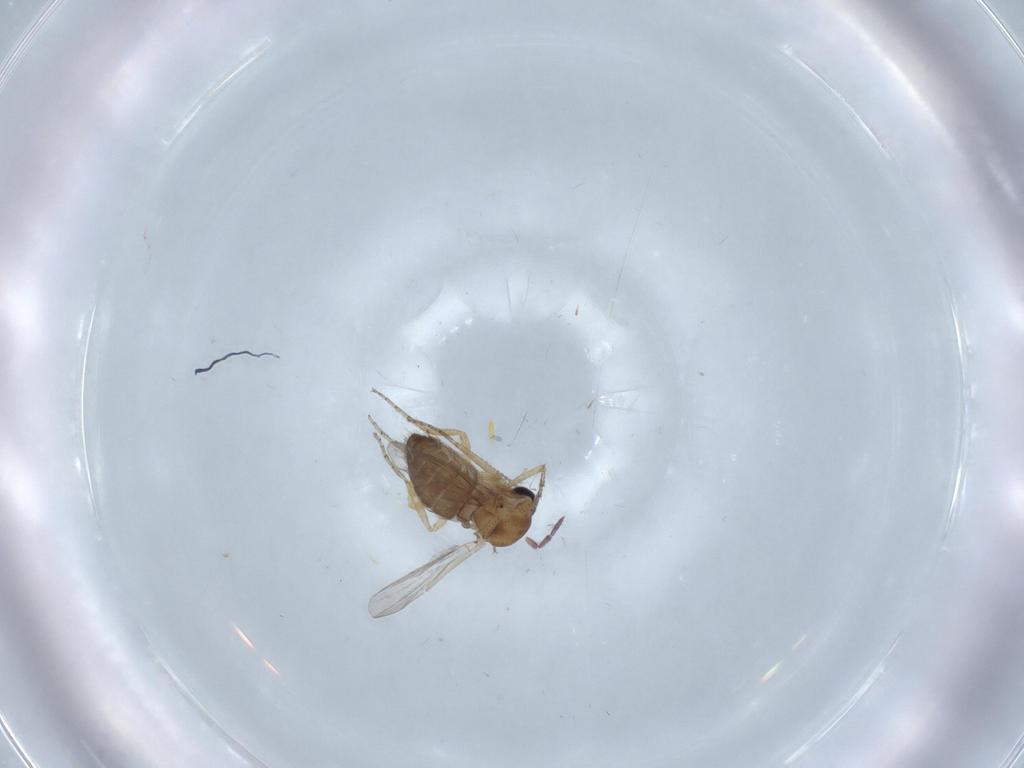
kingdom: Animalia
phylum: Arthropoda
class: Insecta
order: Diptera
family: Ceratopogonidae
